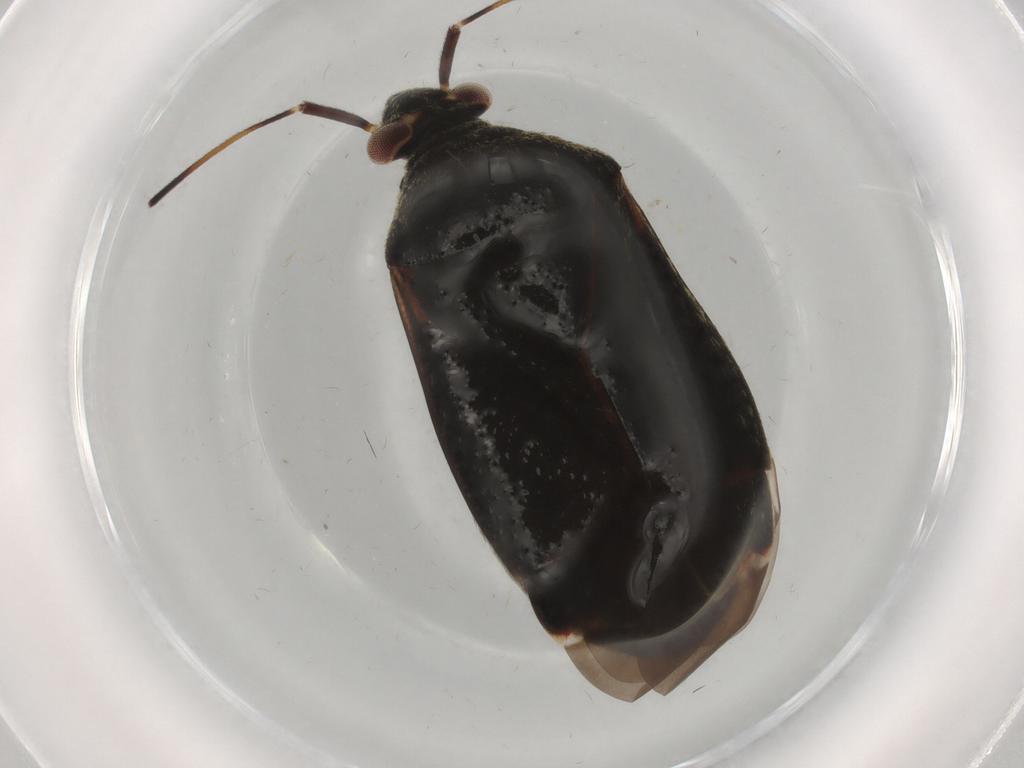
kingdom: Animalia
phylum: Arthropoda
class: Insecta
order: Hemiptera
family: Miridae
